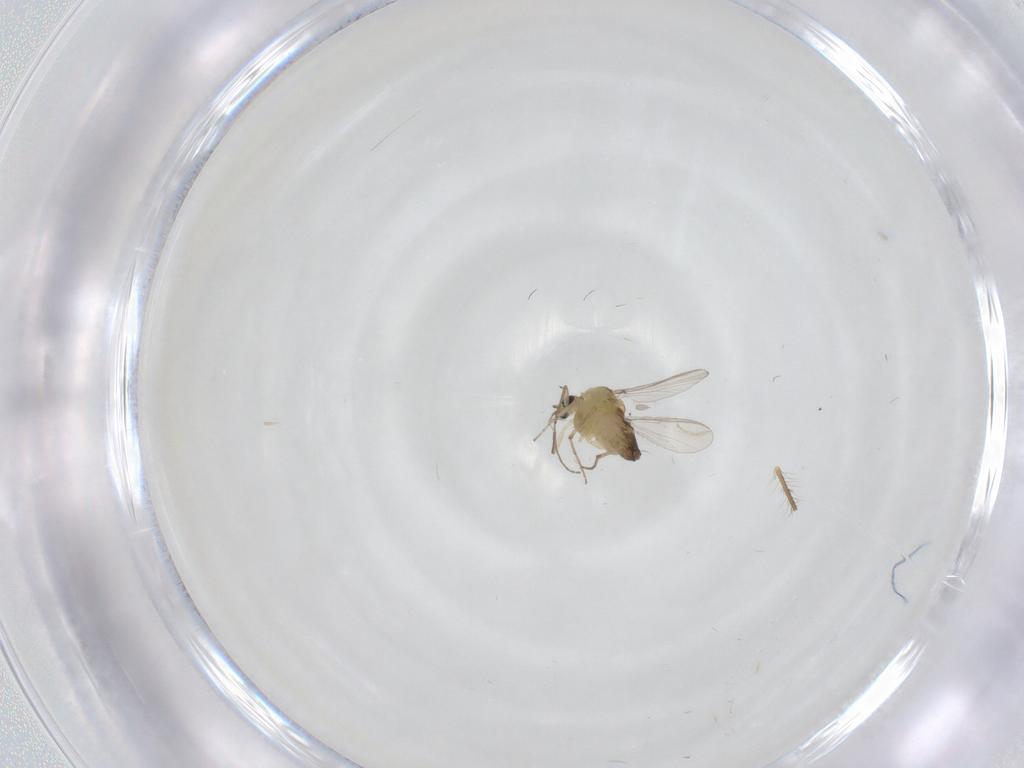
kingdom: Animalia
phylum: Arthropoda
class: Insecta
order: Diptera
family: Chironomidae
